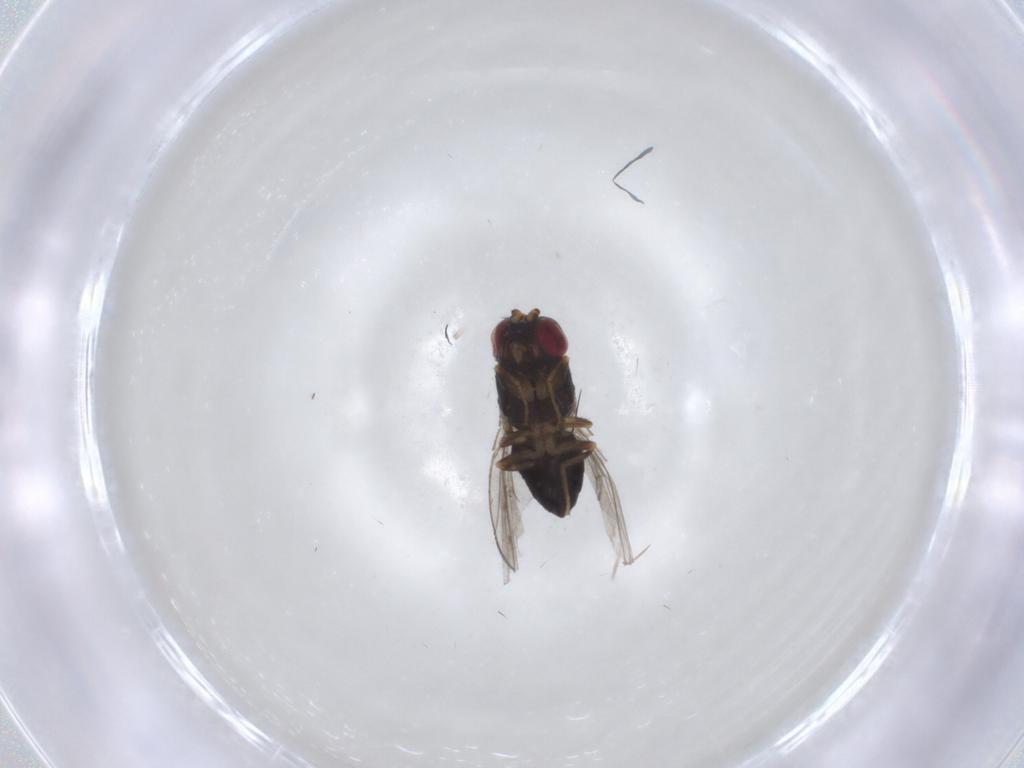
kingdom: Animalia
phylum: Arthropoda
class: Insecta
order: Diptera
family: Ephydridae
